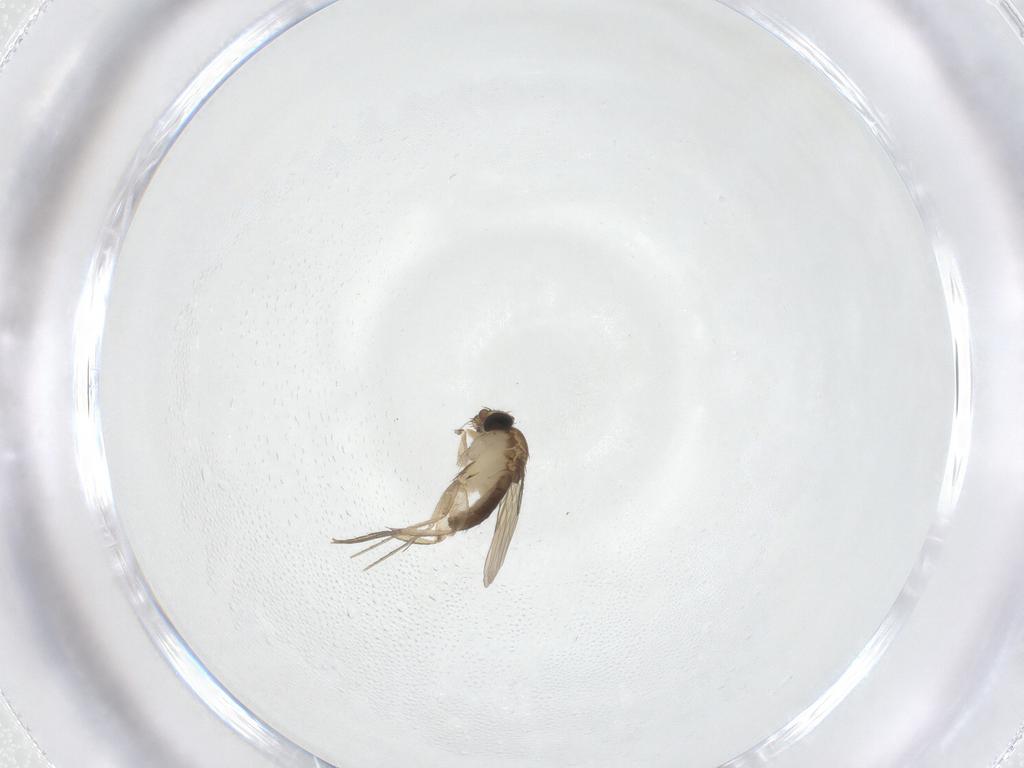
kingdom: Animalia
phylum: Arthropoda
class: Insecta
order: Diptera
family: Phoridae
